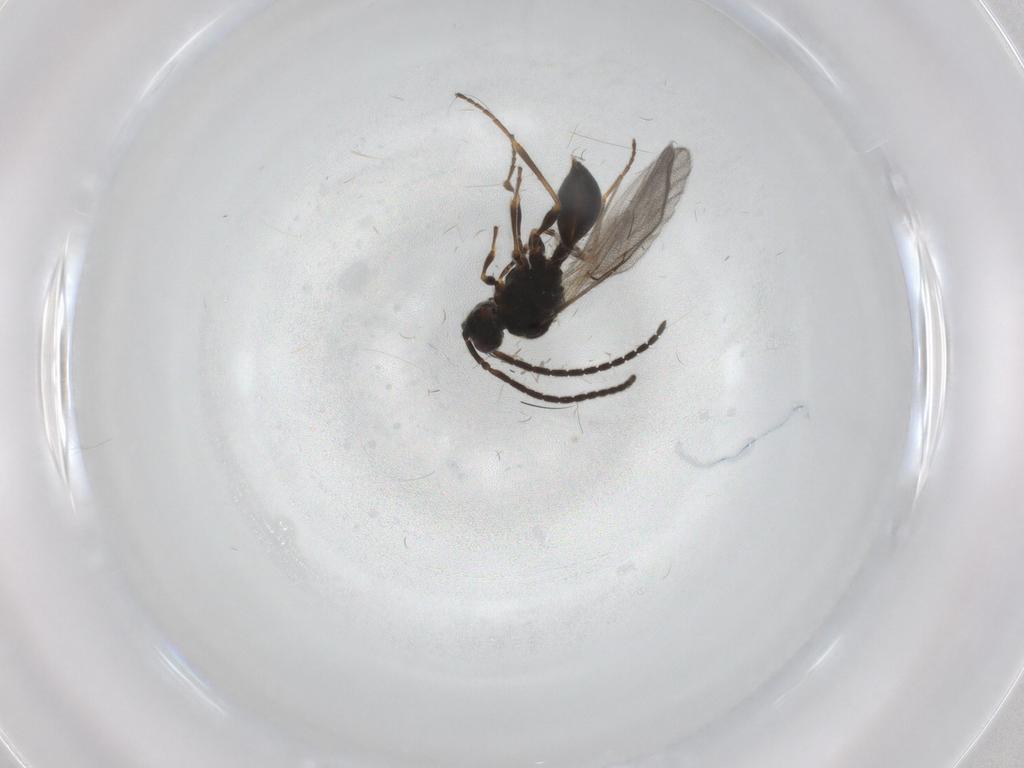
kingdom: Animalia
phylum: Arthropoda
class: Insecta
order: Hymenoptera
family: Diapriidae
